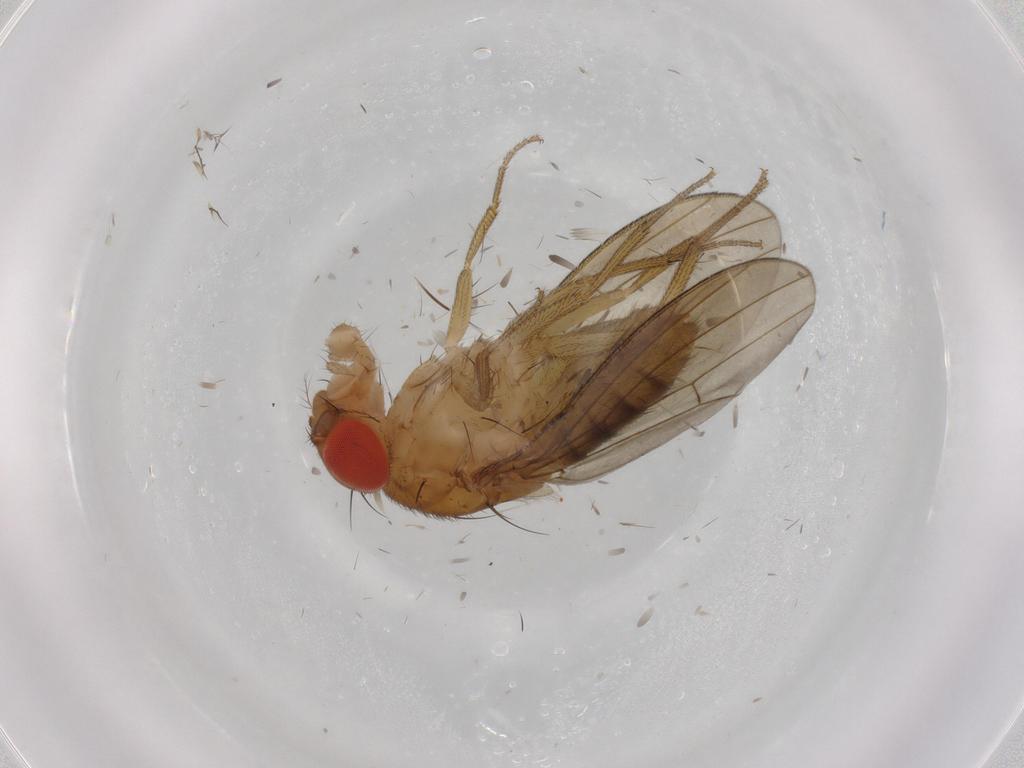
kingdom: Animalia
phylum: Arthropoda
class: Insecta
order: Diptera
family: Drosophilidae
